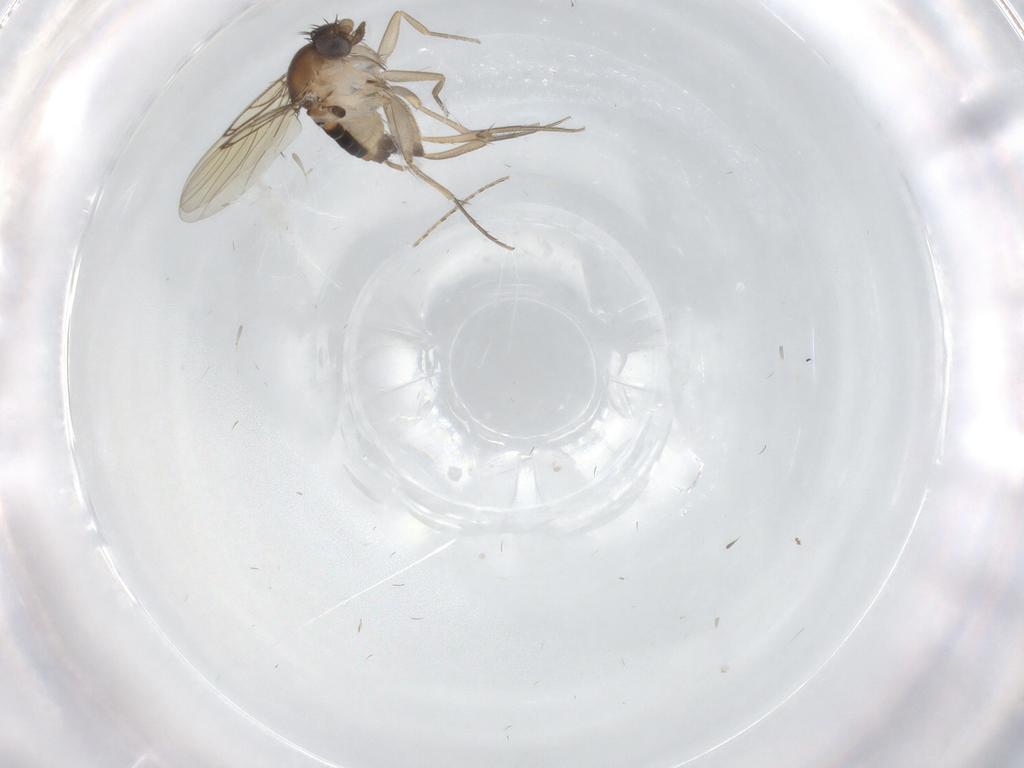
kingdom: Animalia
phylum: Arthropoda
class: Insecta
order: Diptera
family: Phoridae
